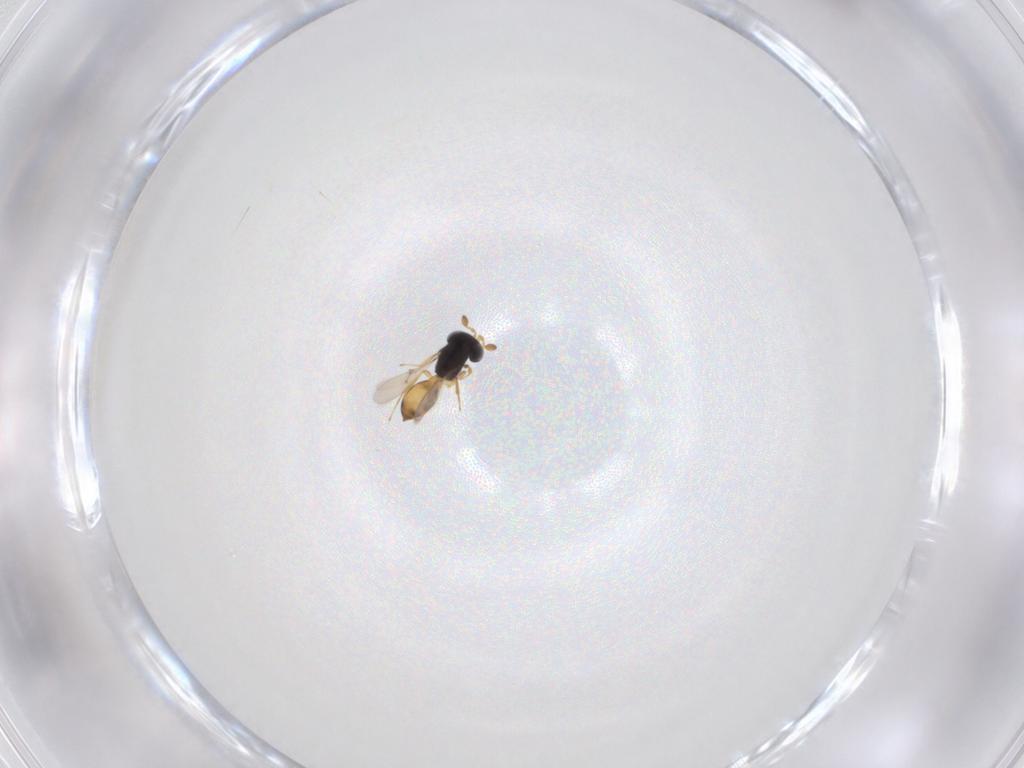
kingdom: Animalia
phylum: Arthropoda
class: Insecta
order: Hymenoptera
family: Scelionidae
